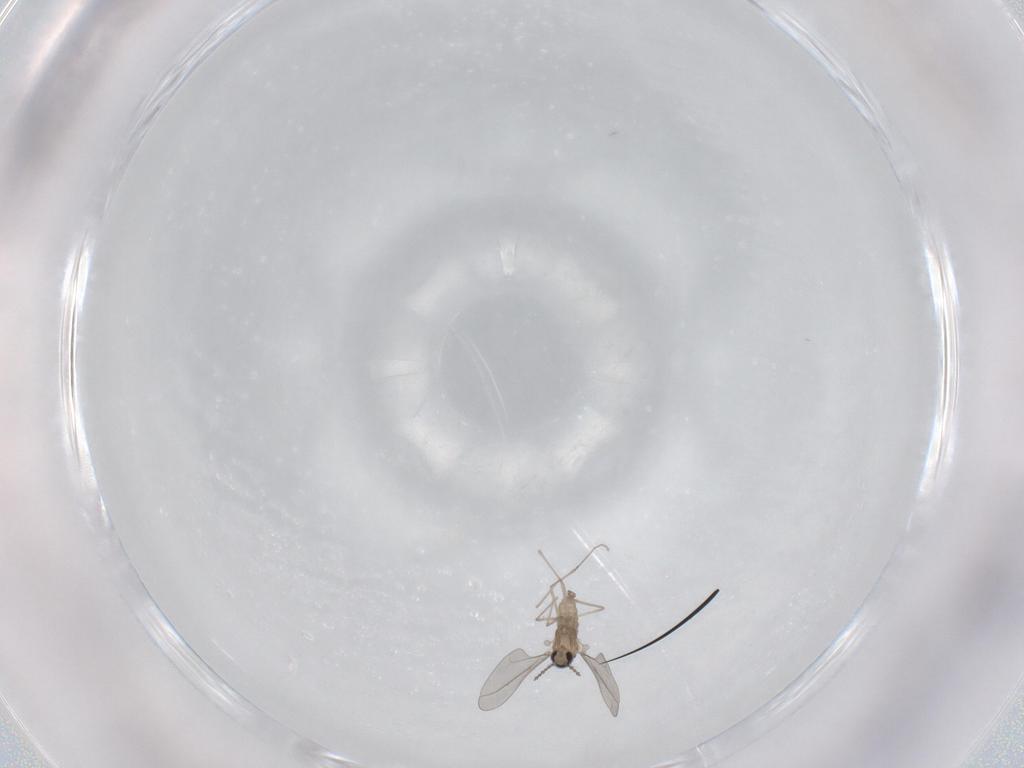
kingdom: Animalia
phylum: Arthropoda
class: Insecta
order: Diptera
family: Cecidomyiidae
